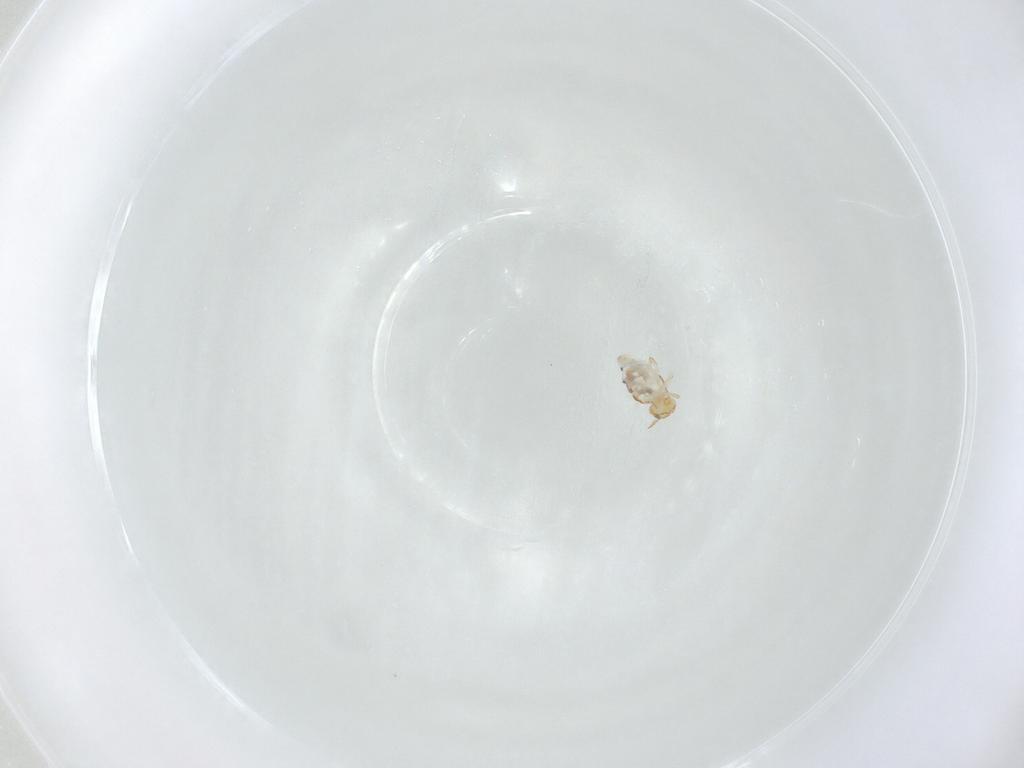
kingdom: Animalia
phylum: Arthropoda
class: Collembola
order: Symphypleona
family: Bourletiellidae
